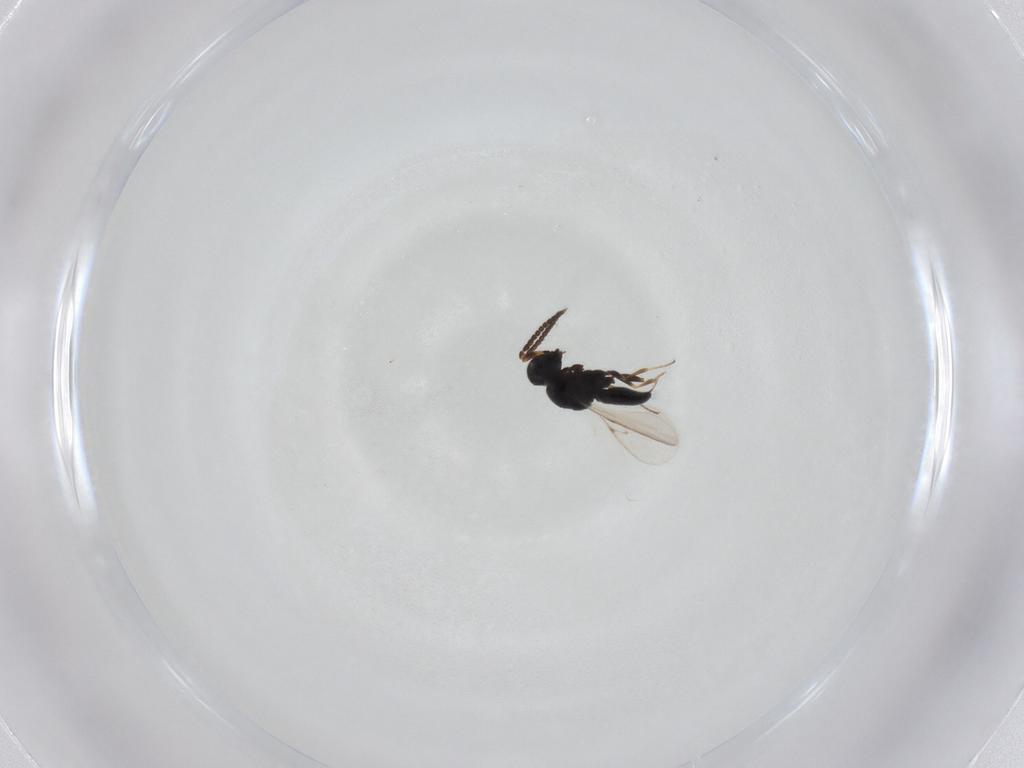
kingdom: Animalia
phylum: Arthropoda
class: Insecta
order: Hymenoptera
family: Scelionidae
